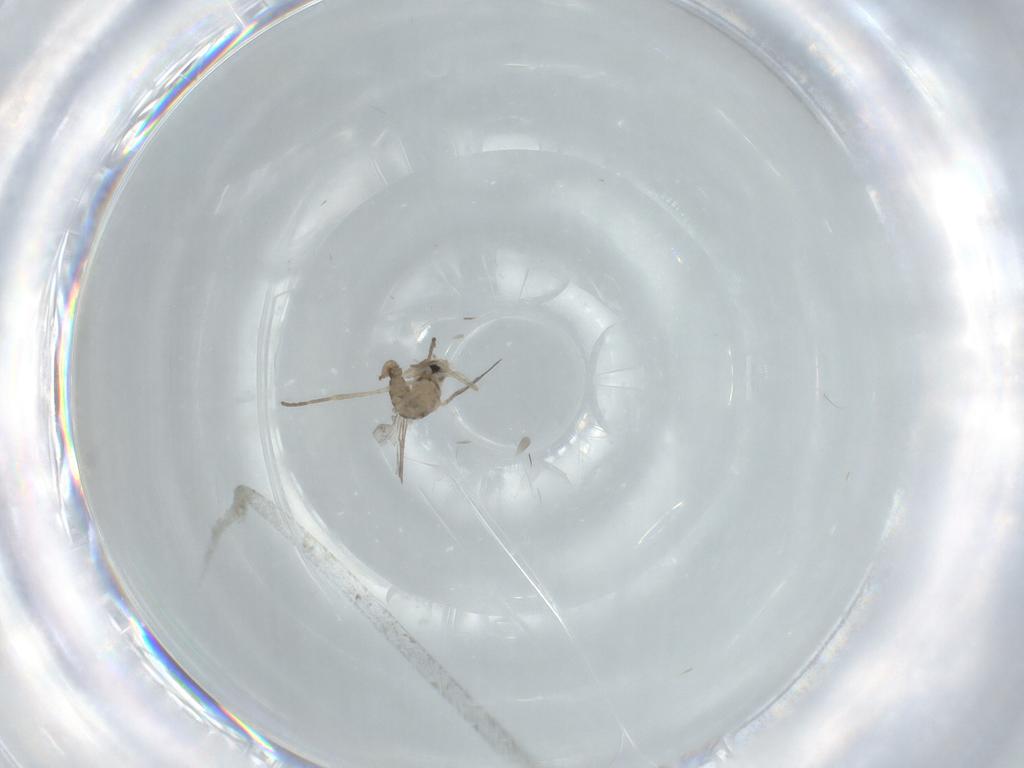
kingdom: Animalia
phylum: Arthropoda
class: Insecta
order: Diptera
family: Cecidomyiidae
